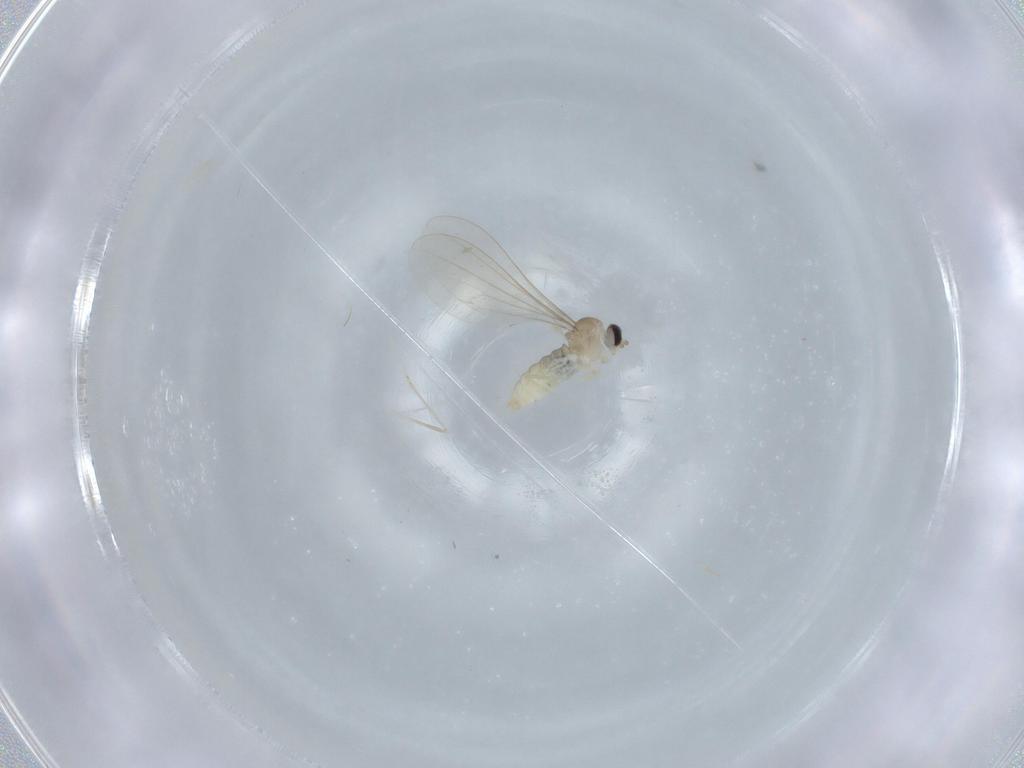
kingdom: Animalia
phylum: Arthropoda
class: Insecta
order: Diptera
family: Cecidomyiidae
